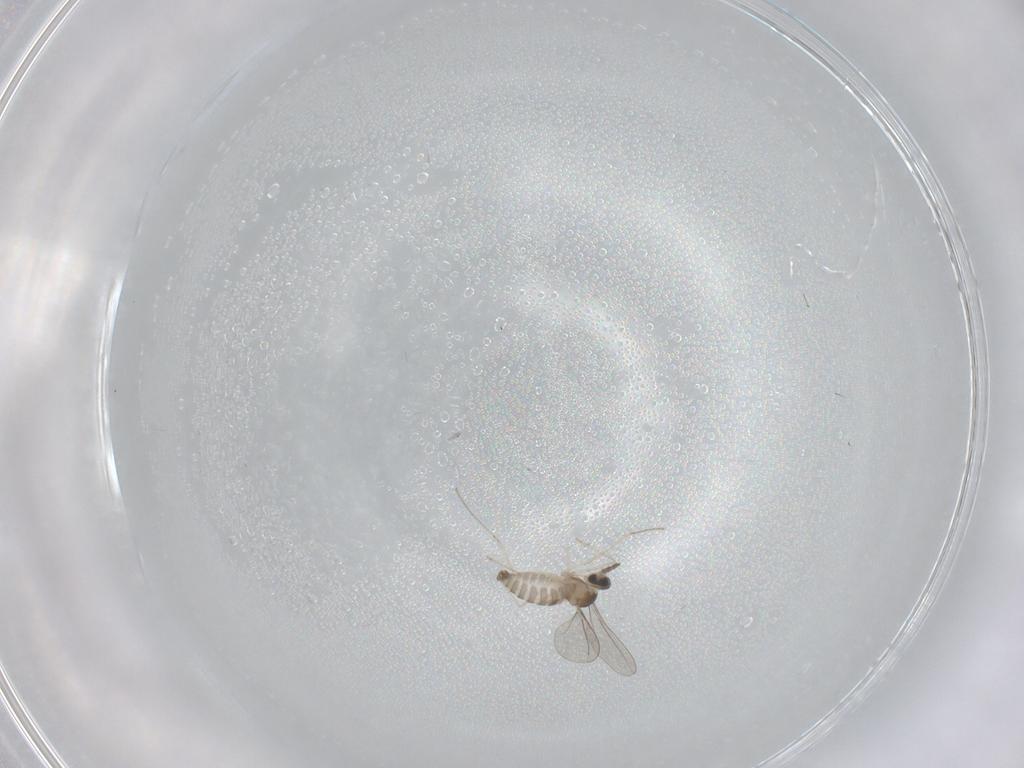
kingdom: Animalia
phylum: Arthropoda
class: Insecta
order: Diptera
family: Cecidomyiidae
